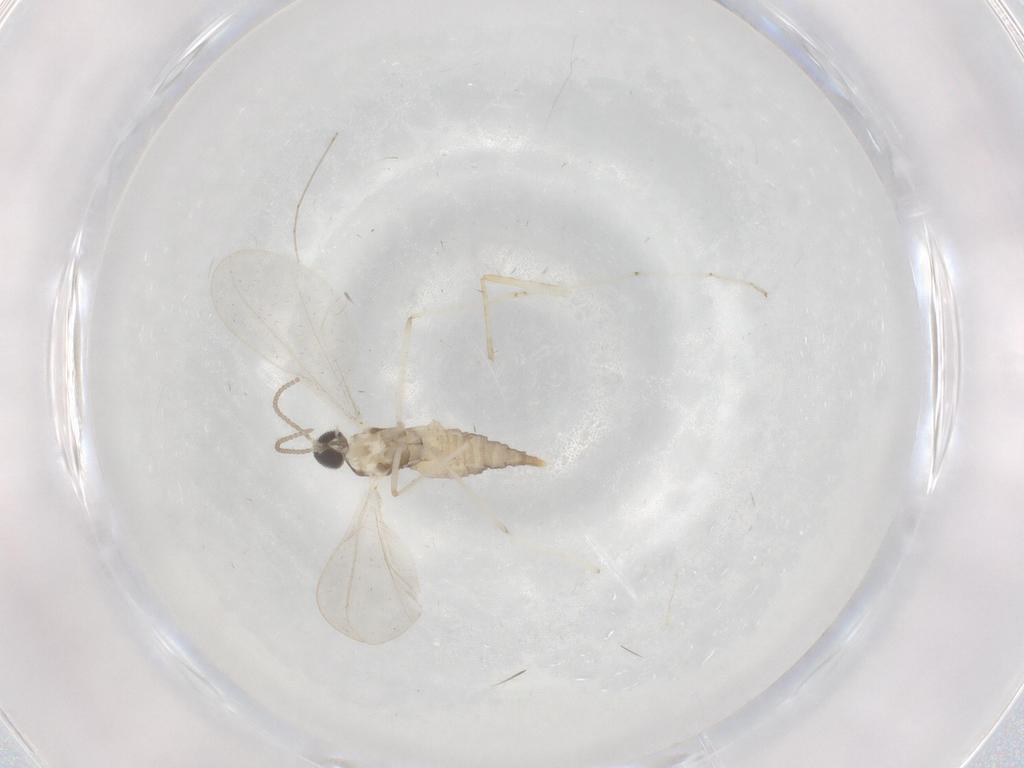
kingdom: Animalia
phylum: Arthropoda
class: Insecta
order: Diptera
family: Cecidomyiidae
